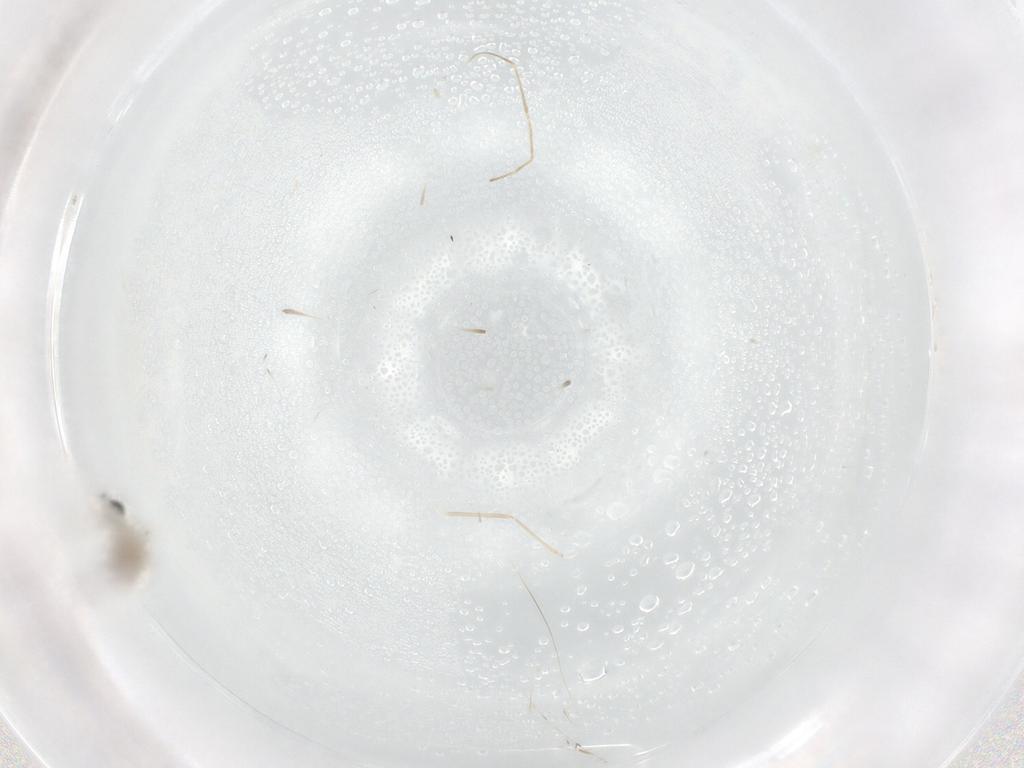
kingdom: Animalia
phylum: Arthropoda
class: Insecta
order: Diptera
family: Cecidomyiidae
